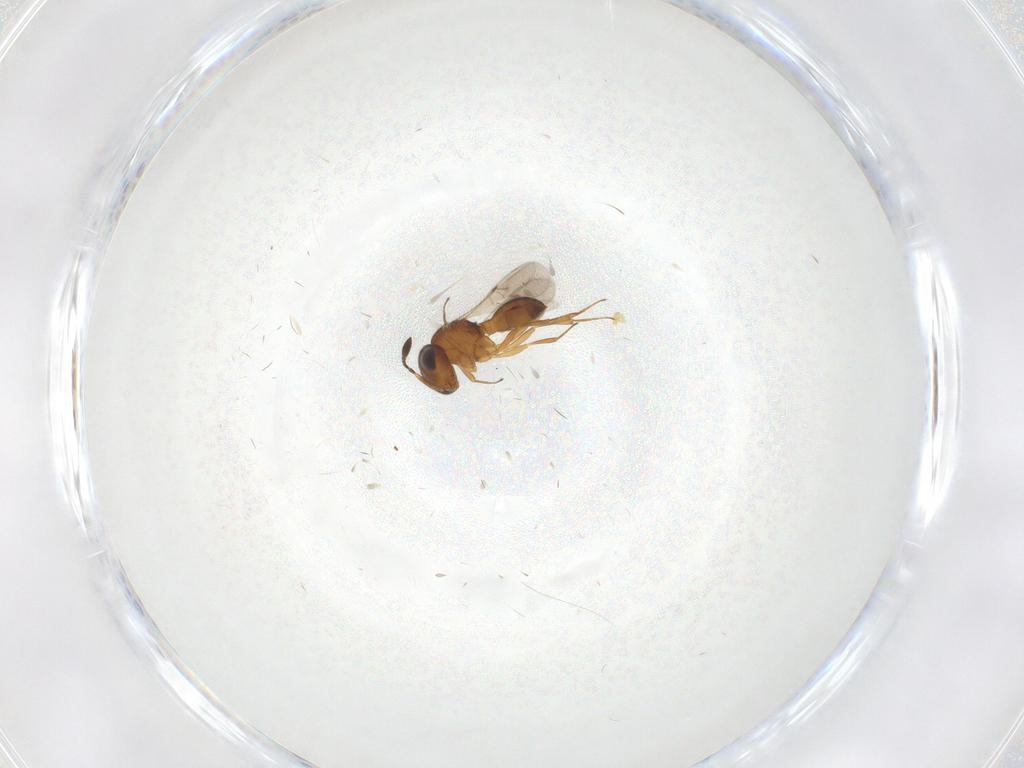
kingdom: Animalia
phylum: Arthropoda
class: Insecta
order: Hymenoptera
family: Scelionidae
